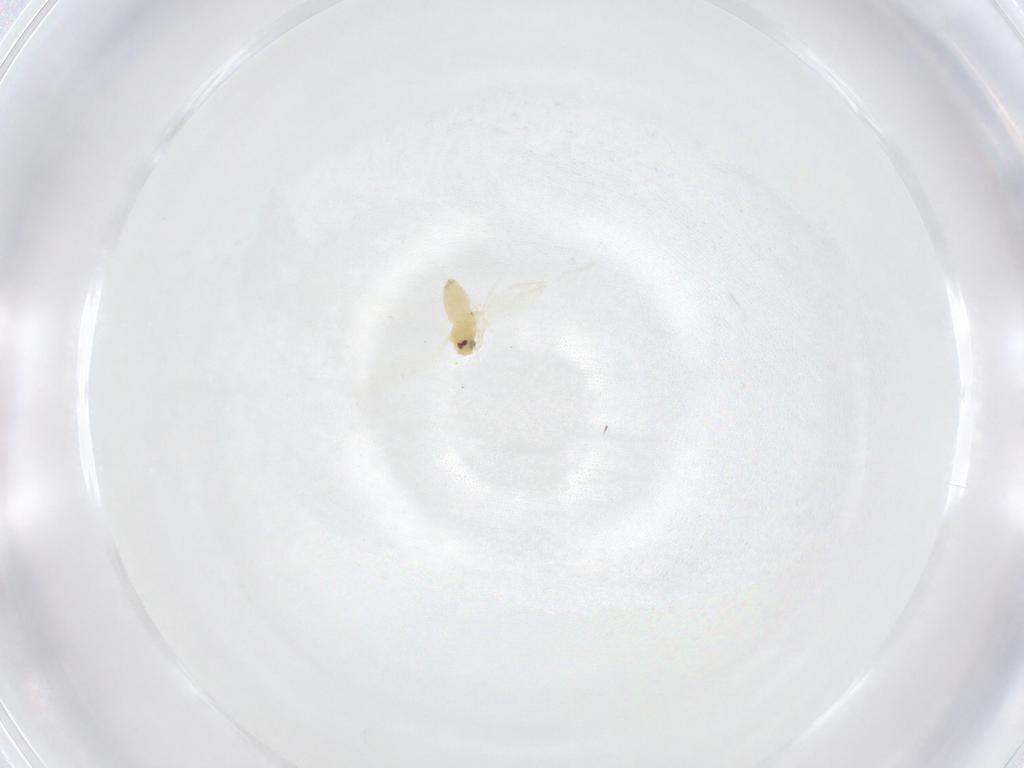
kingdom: Animalia
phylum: Arthropoda
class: Insecta
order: Hemiptera
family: Aleyrodidae
